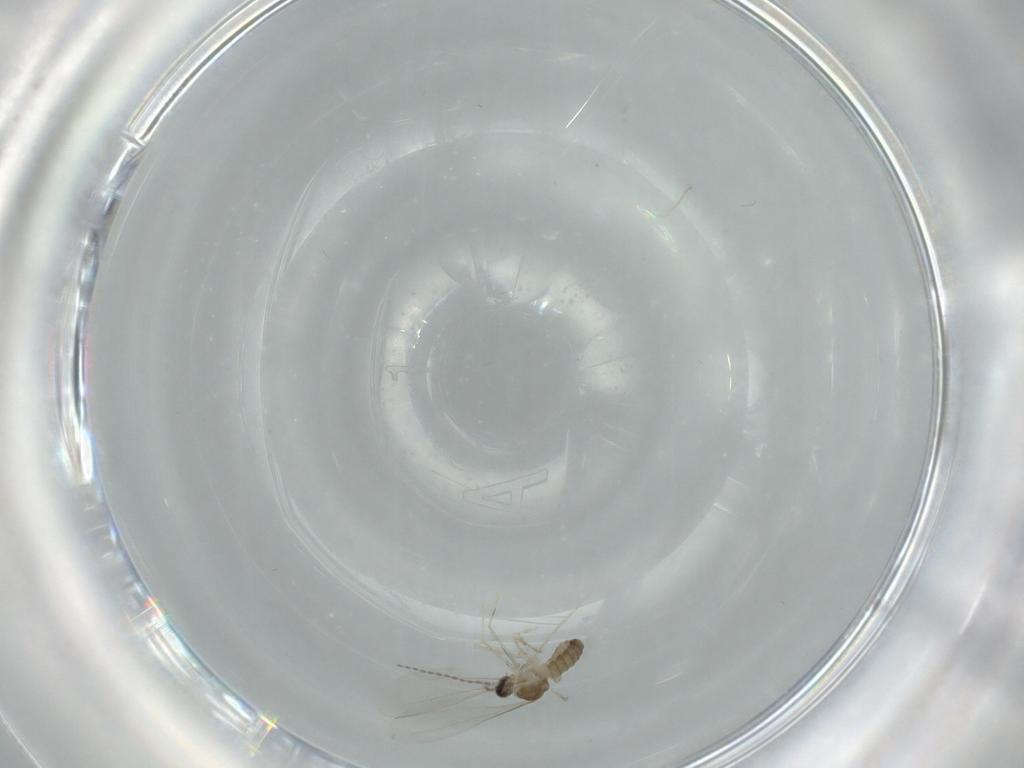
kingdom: Animalia
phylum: Arthropoda
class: Insecta
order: Diptera
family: Cecidomyiidae
